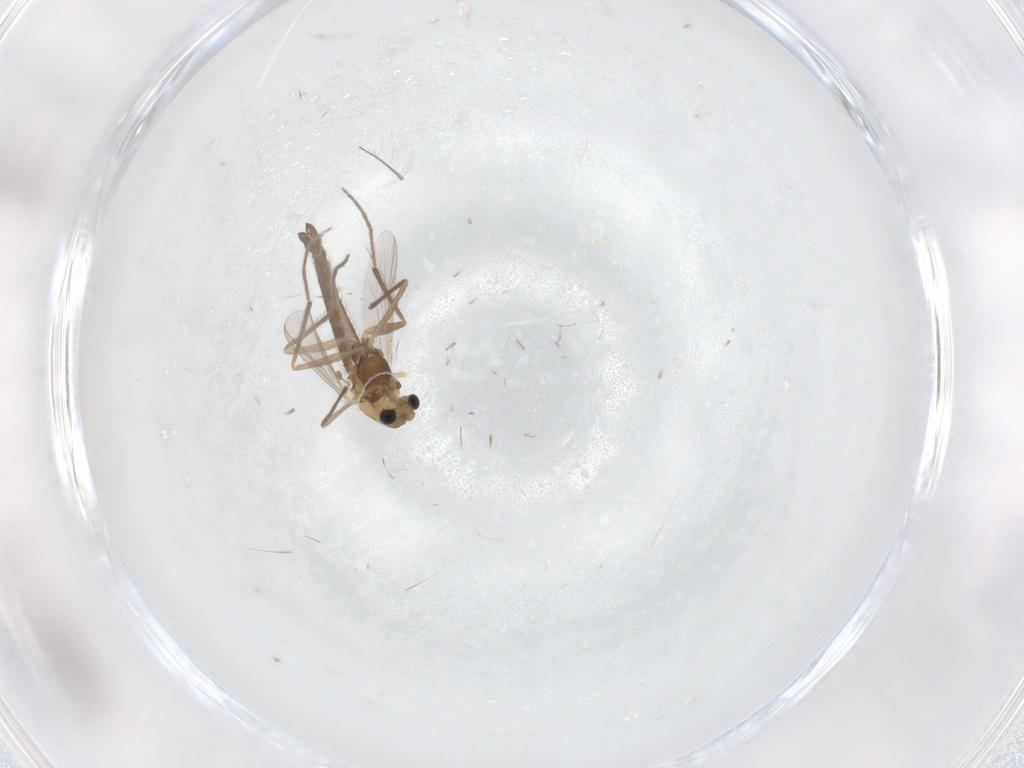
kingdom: Animalia
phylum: Arthropoda
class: Insecta
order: Diptera
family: Chironomidae
